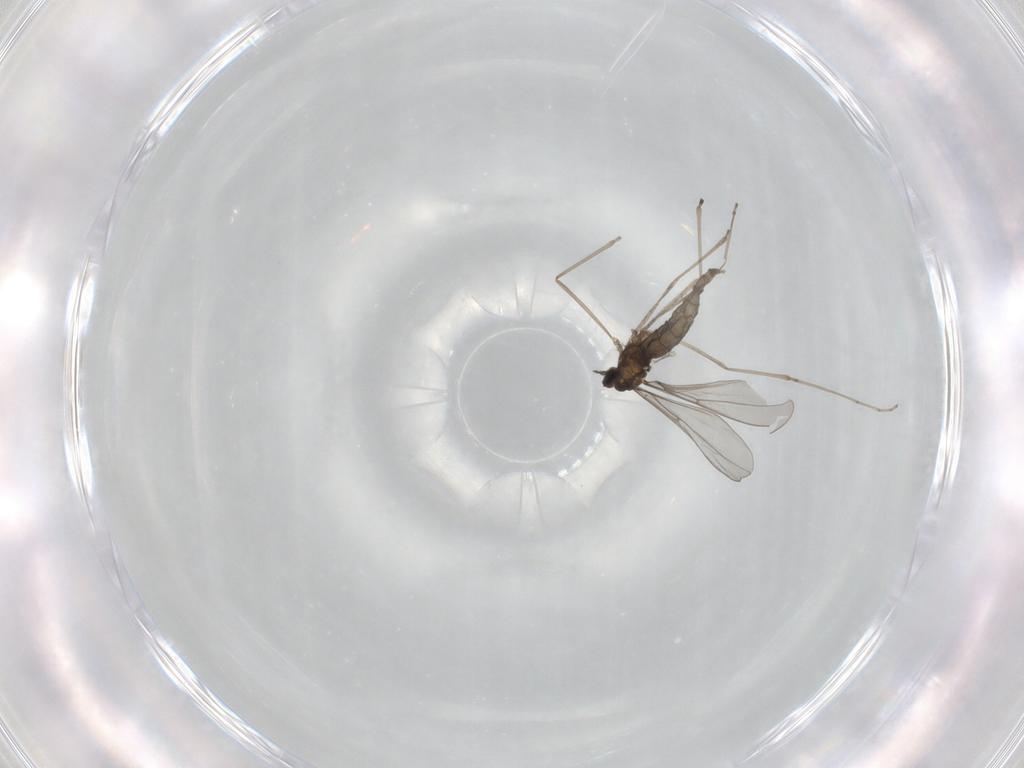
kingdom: Animalia
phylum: Arthropoda
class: Insecta
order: Diptera
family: Cecidomyiidae
